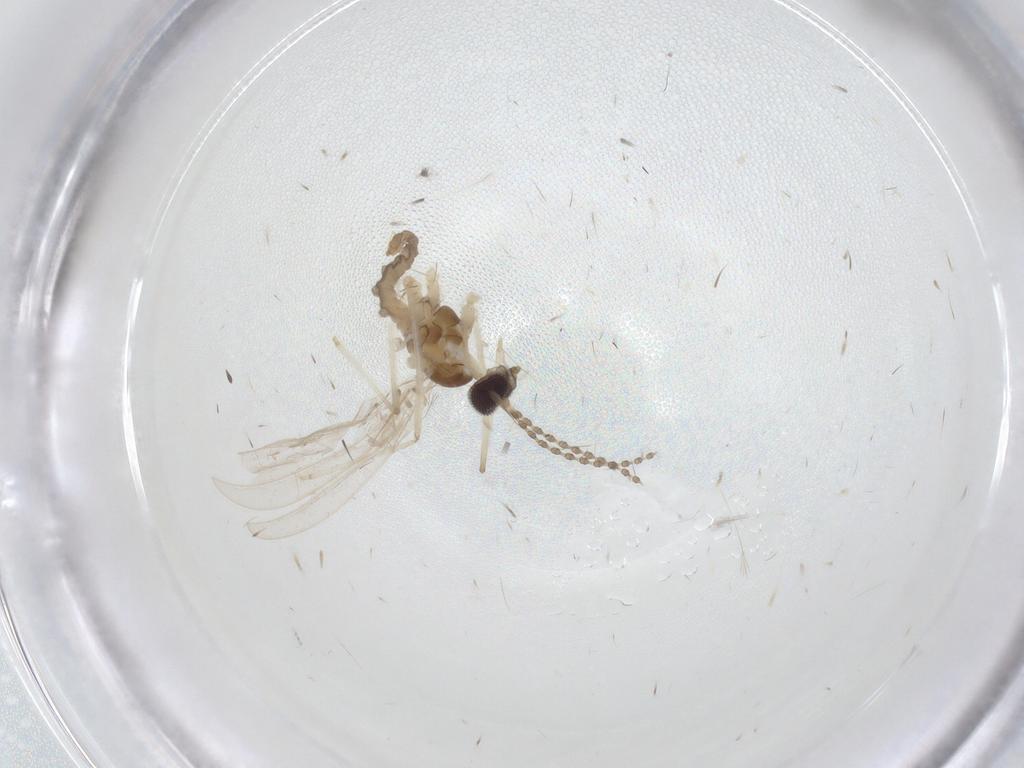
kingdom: Animalia
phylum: Arthropoda
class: Insecta
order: Diptera
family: Cecidomyiidae
